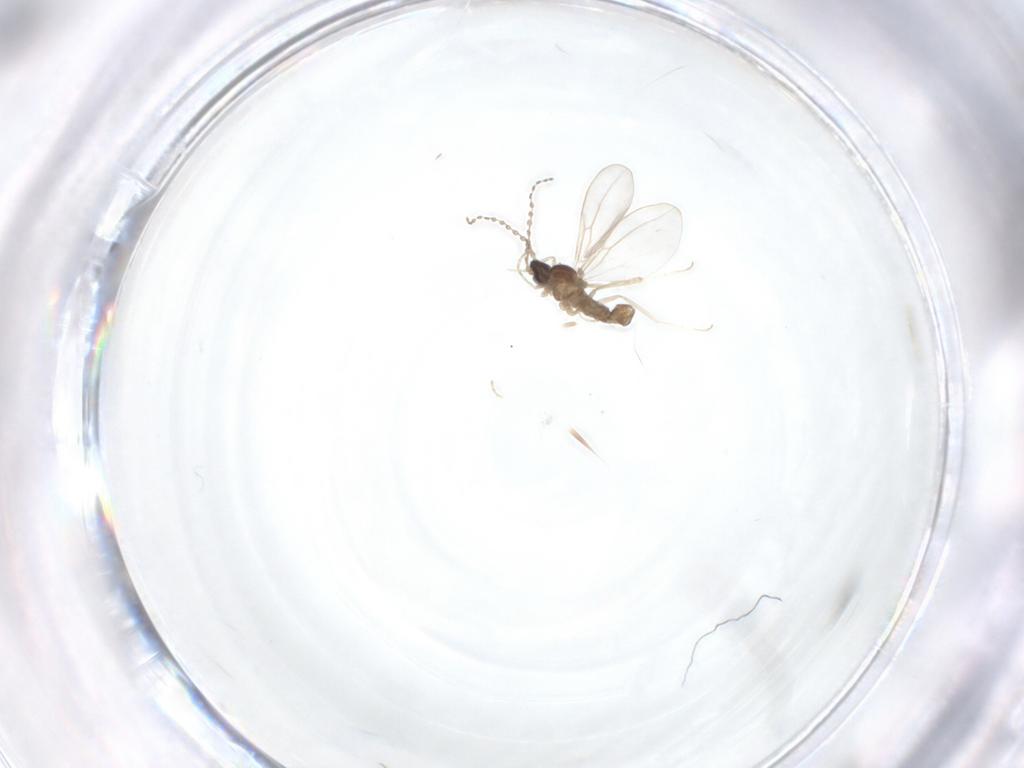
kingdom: Animalia
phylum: Arthropoda
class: Insecta
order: Diptera
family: Cecidomyiidae
